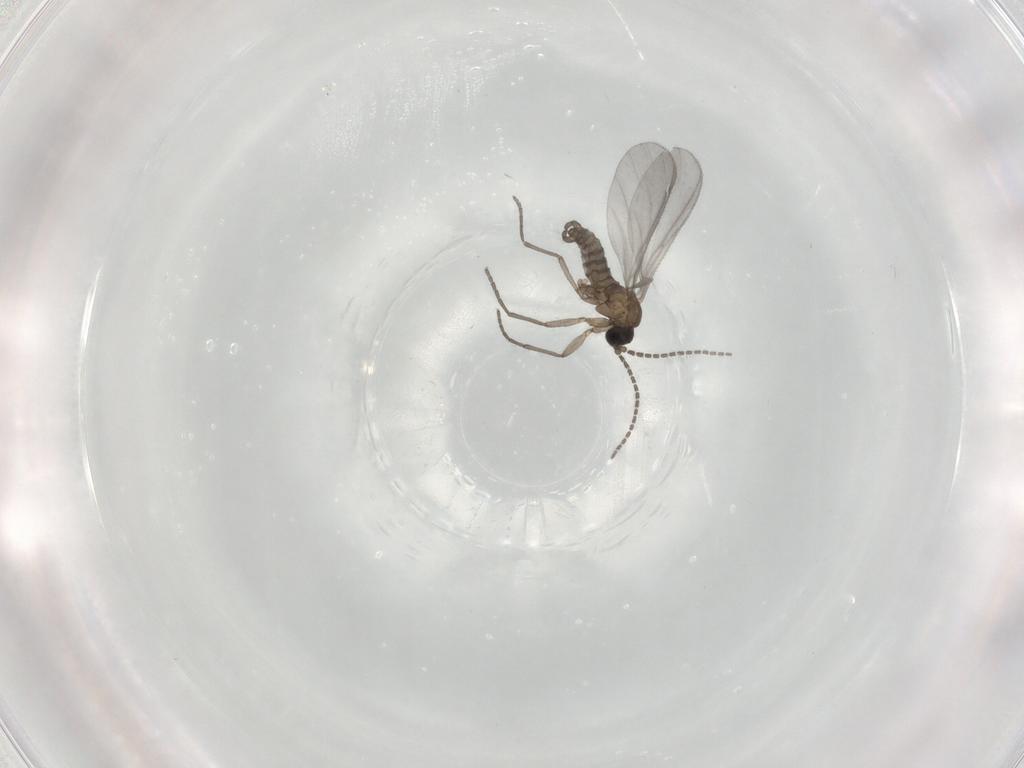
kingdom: Animalia
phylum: Arthropoda
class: Insecta
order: Diptera
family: Sciaridae
